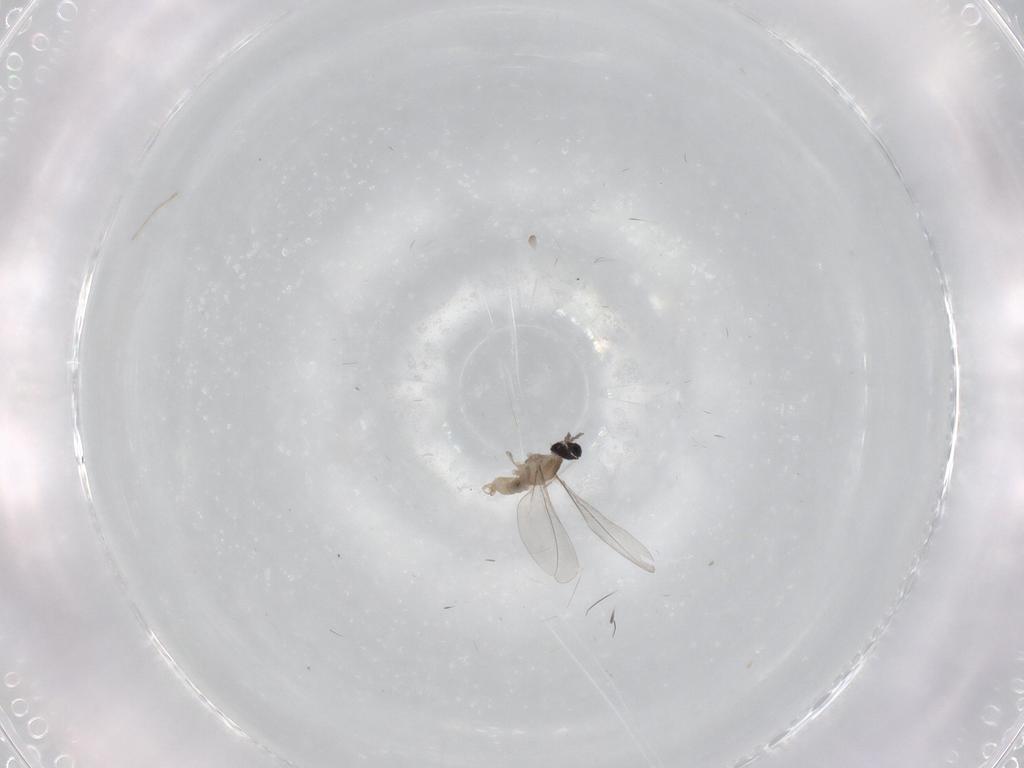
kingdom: Animalia
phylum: Arthropoda
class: Insecta
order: Diptera
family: Cecidomyiidae
